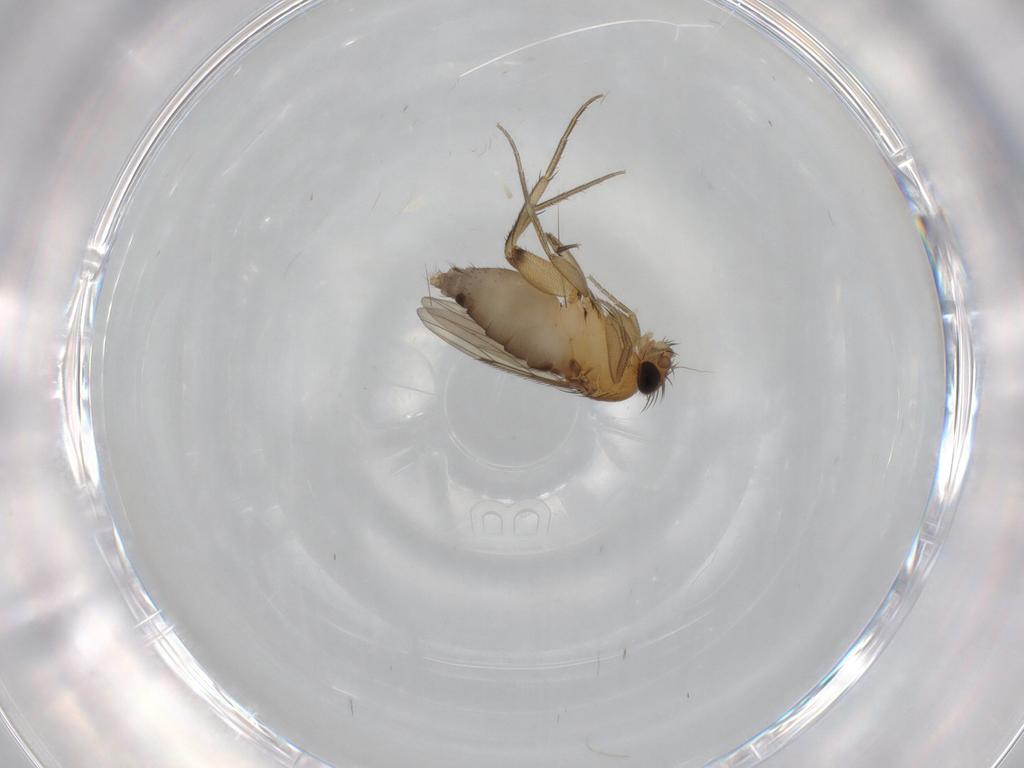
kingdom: Animalia
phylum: Arthropoda
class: Insecta
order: Diptera
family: Phoridae
